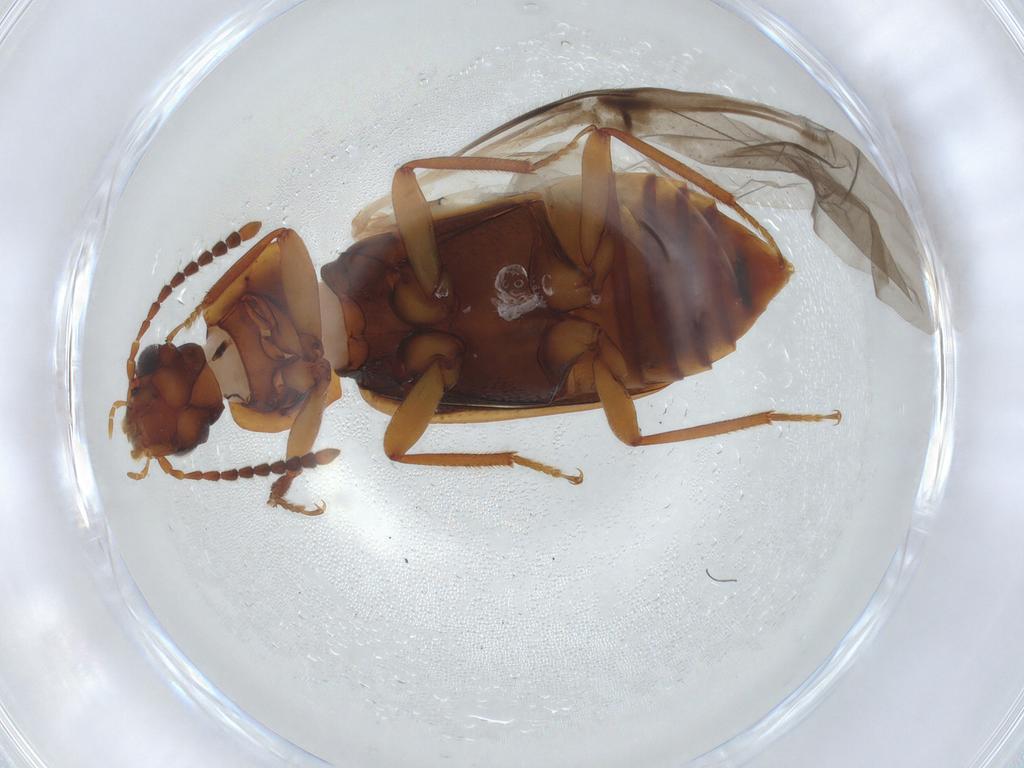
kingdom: Animalia
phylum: Arthropoda
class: Insecta
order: Coleoptera
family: Staphylinidae
